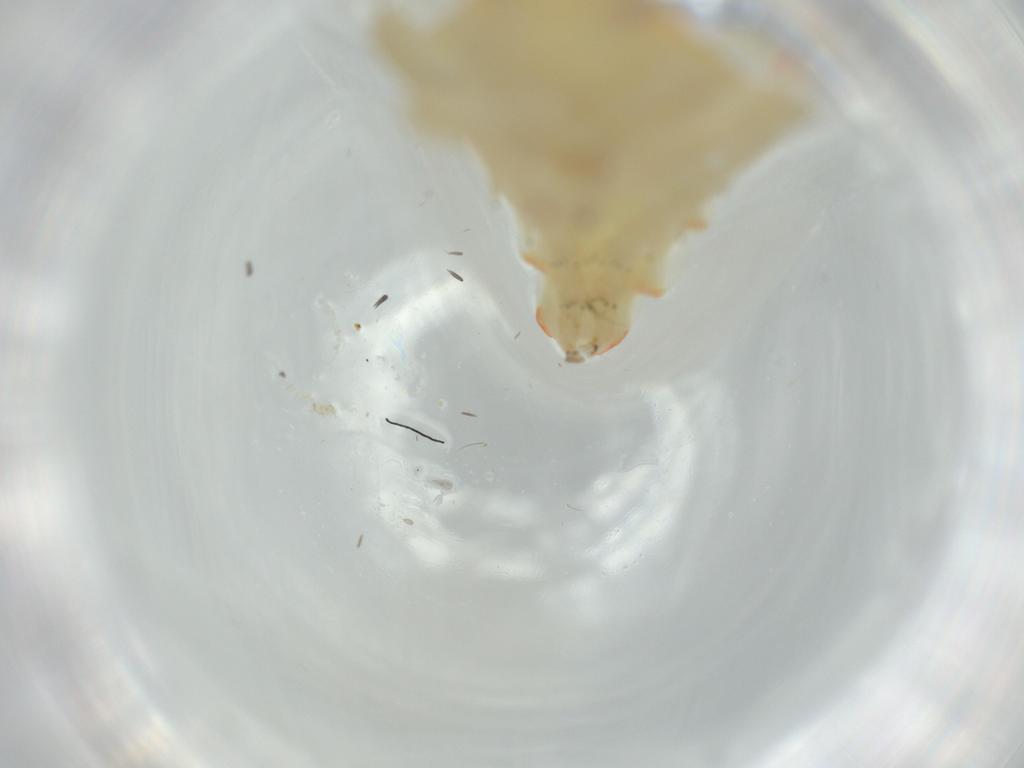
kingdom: Animalia
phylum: Arthropoda
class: Insecta
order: Hemiptera
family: Tropiduchidae
